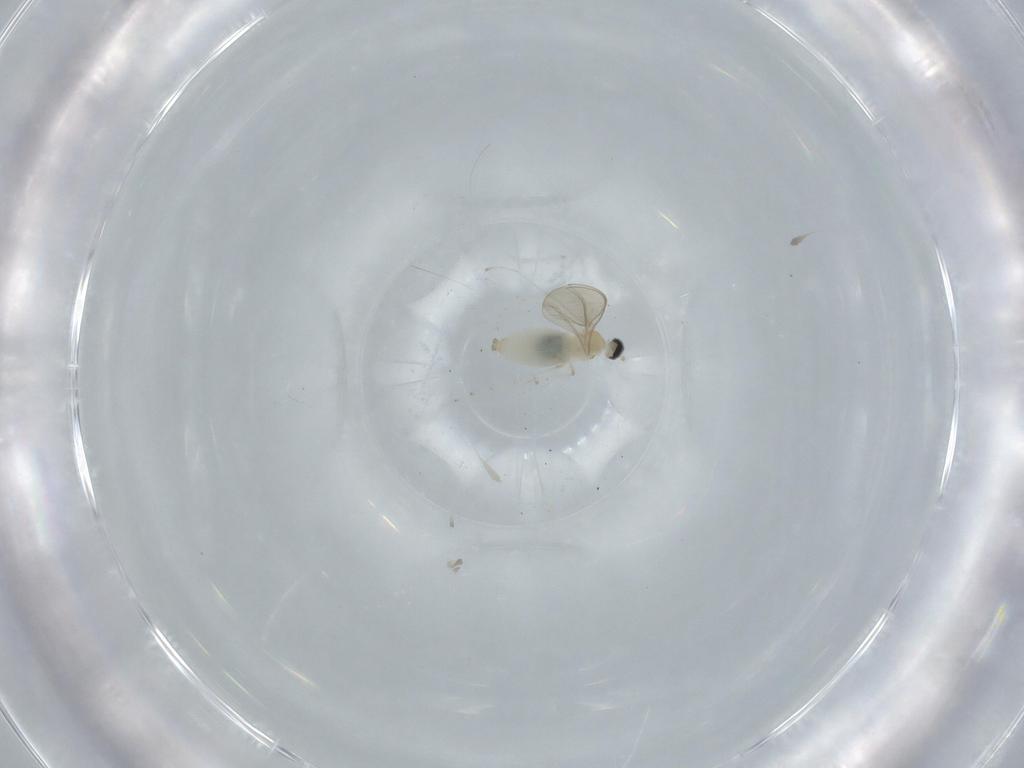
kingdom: Animalia
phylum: Arthropoda
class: Insecta
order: Diptera
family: Cecidomyiidae
